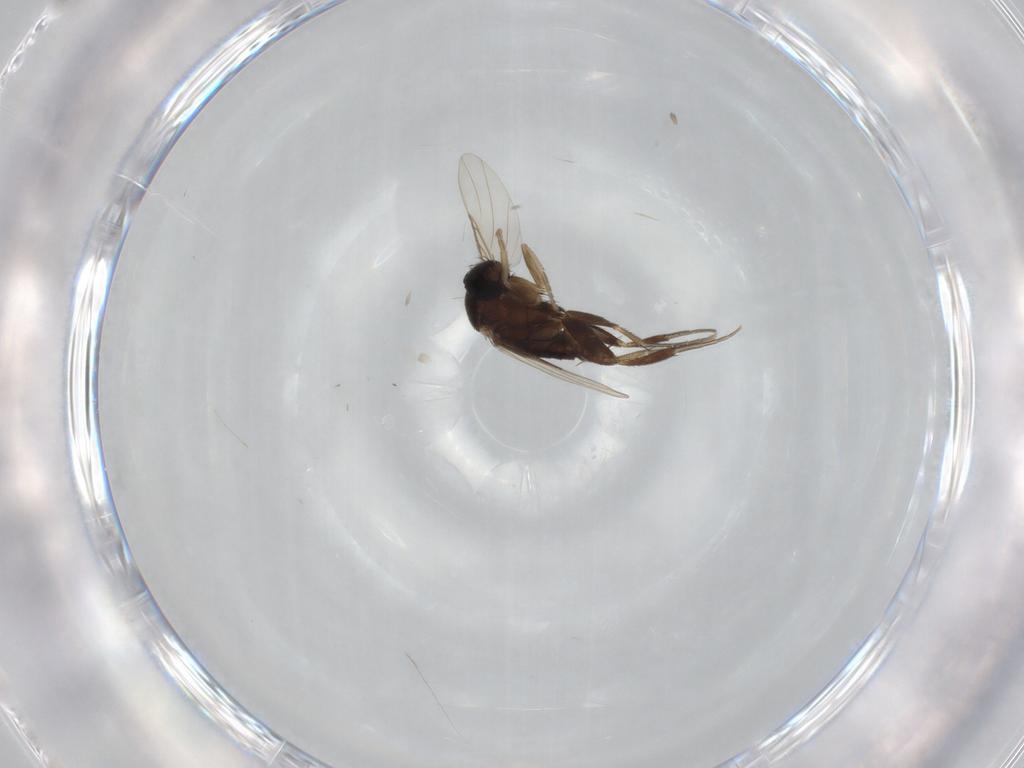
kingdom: Animalia
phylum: Arthropoda
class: Insecta
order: Diptera
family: Phoridae
